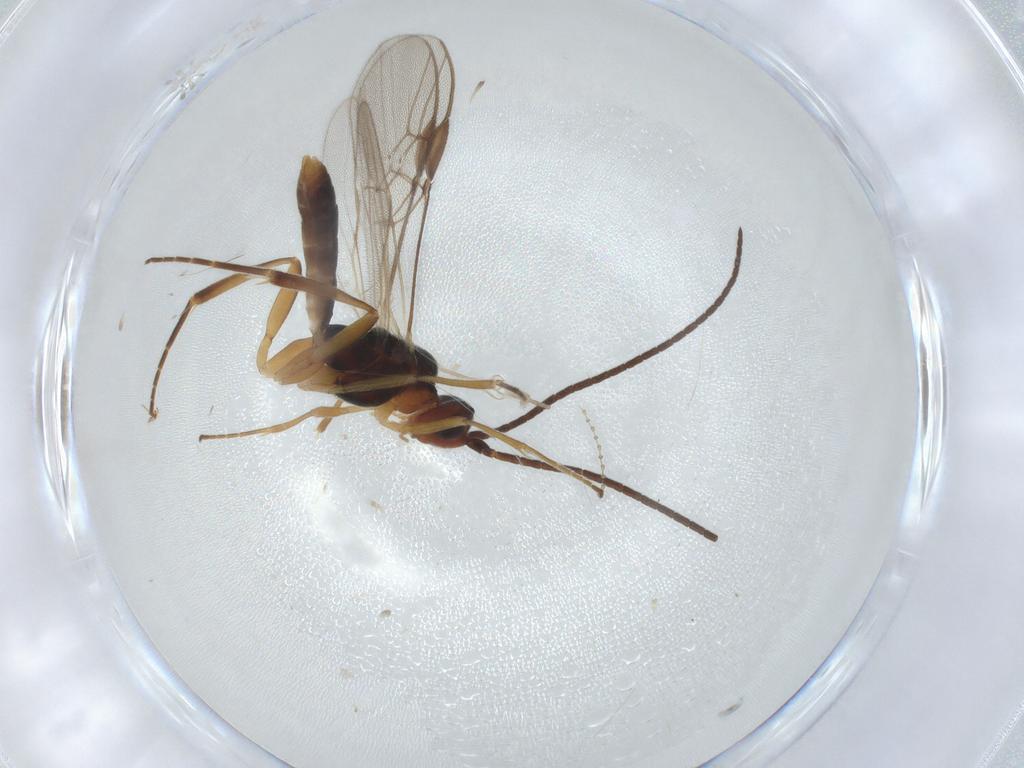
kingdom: Animalia
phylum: Arthropoda
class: Insecta
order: Hymenoptera
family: Braconidae
